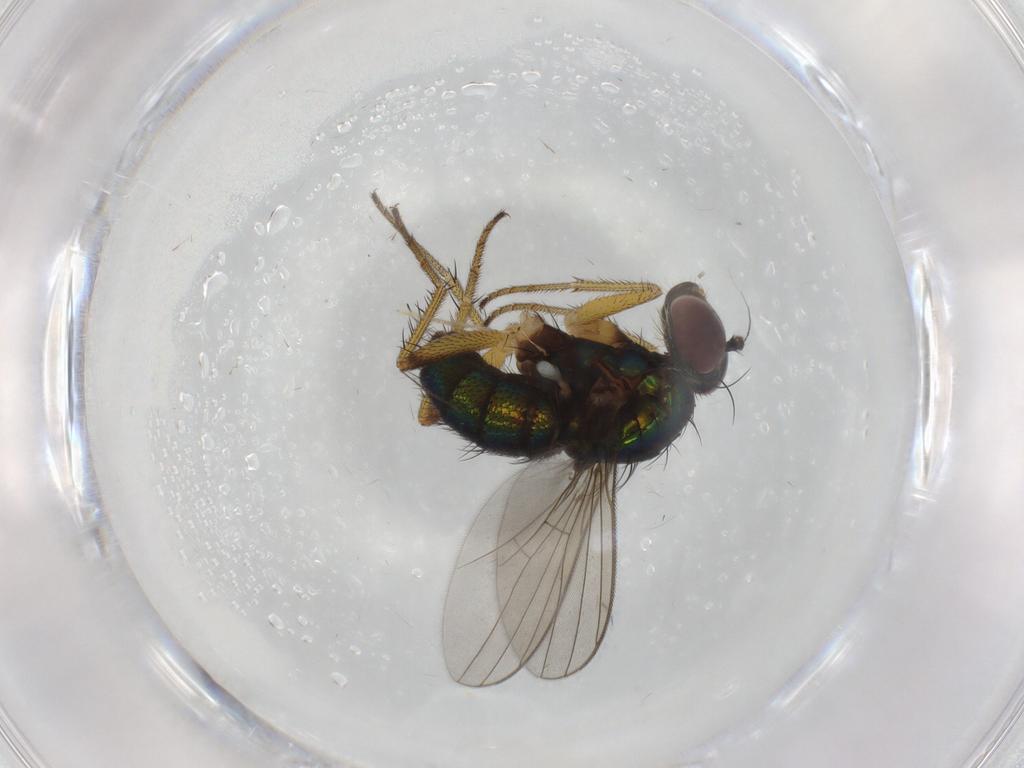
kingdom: Animalia
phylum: Arthropoda
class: Insecta
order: Diptera
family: Dolichopodidae
